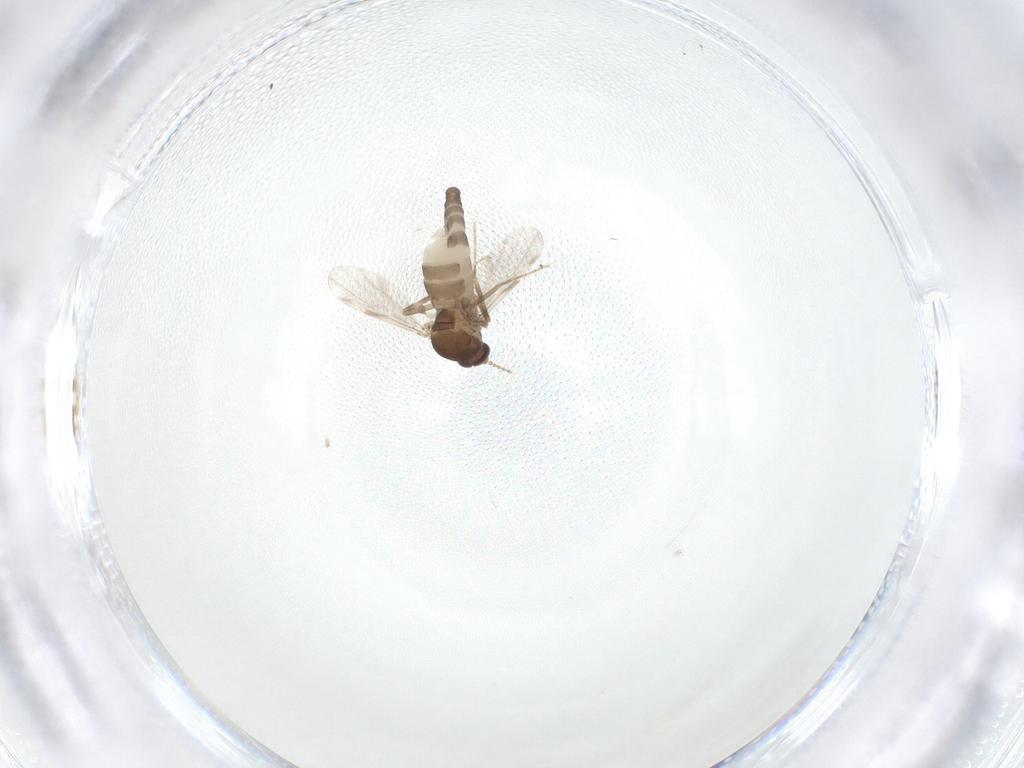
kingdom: Animalia
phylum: Arthropoda
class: Insecta
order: Diptera
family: Ceratopogonidae
